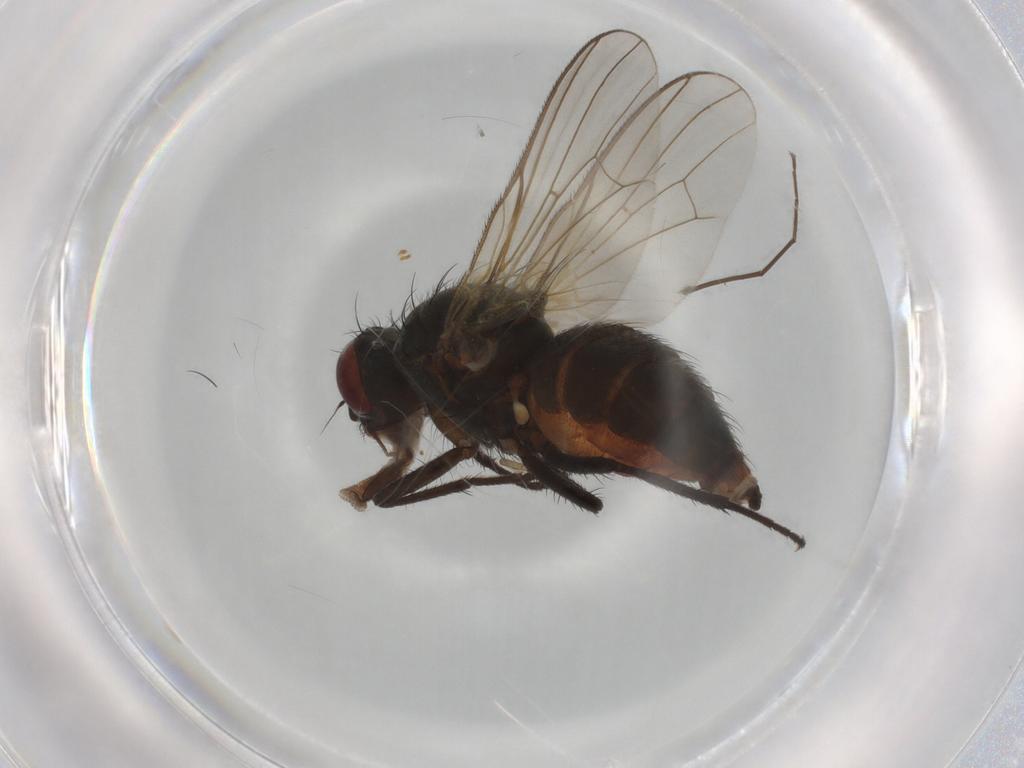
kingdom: Animalia
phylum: Arthropoda
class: Insecta
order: Diptera
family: Anthomyiidae
